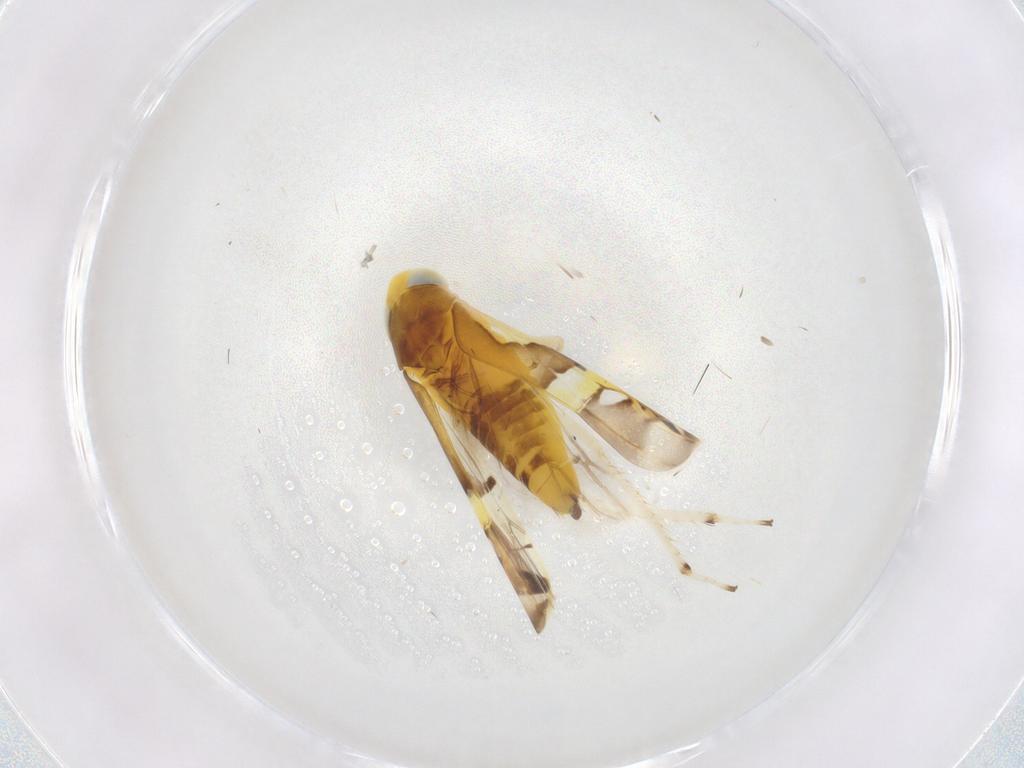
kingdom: Animalia
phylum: Arthropoda
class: Insecta
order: Hemiptera
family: Cicadellidae
